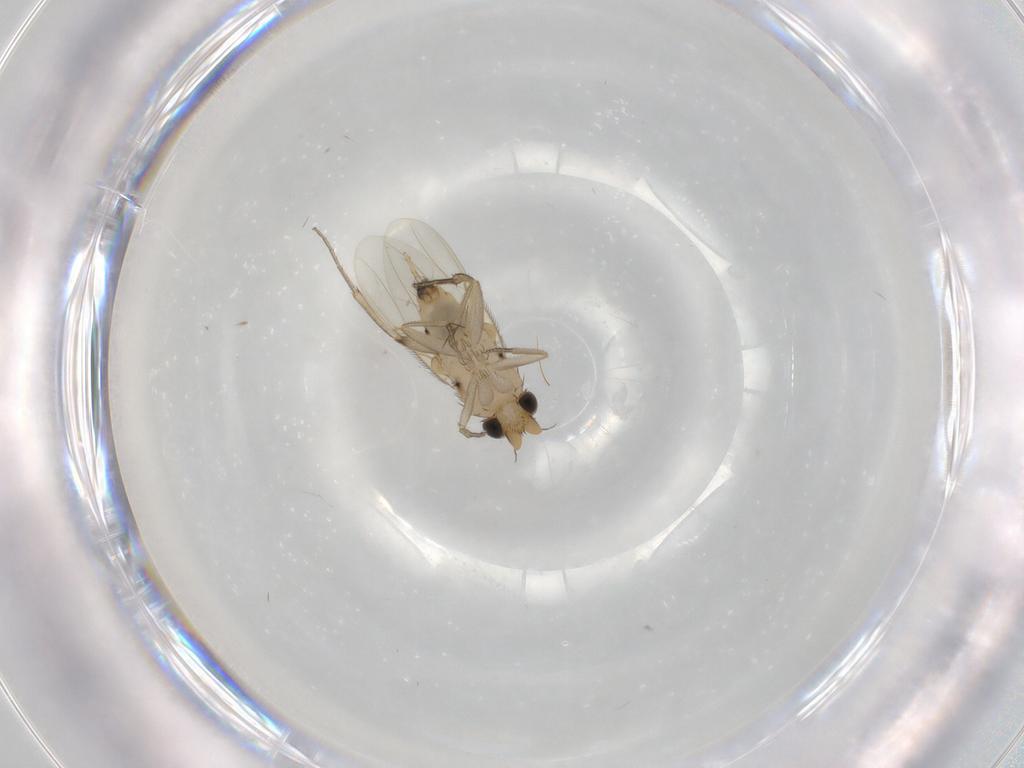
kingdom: Animalia
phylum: Arthropoda
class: Insecta
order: Diptera
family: Phoridae
